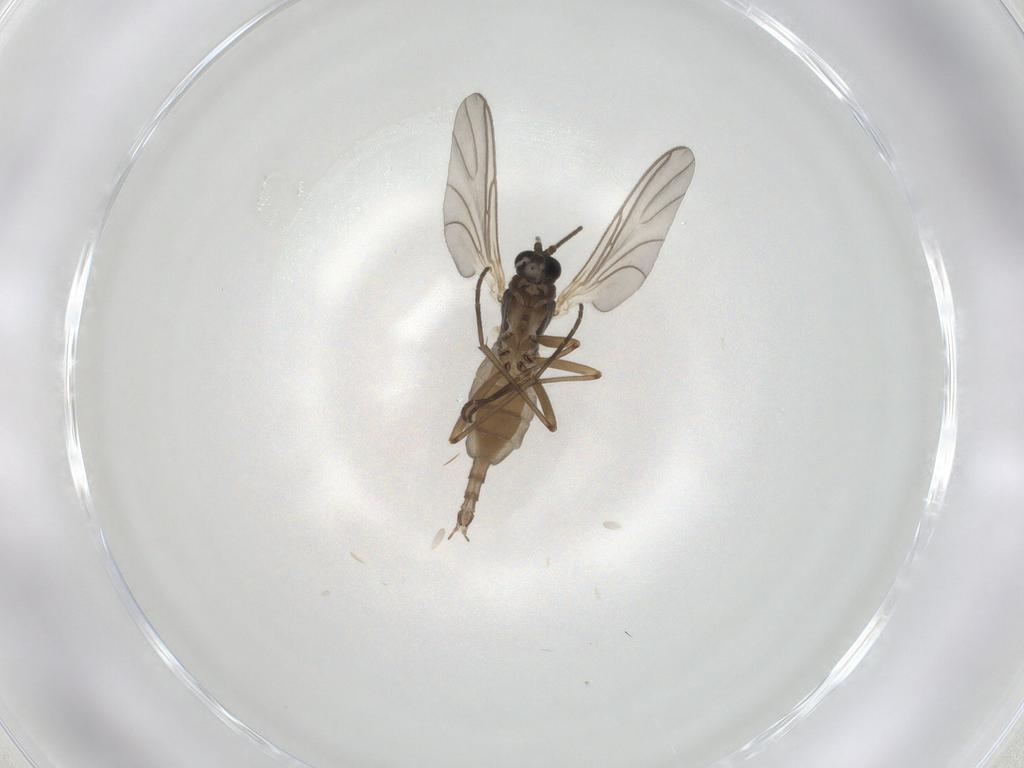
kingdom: Animalia
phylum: Arthropoda
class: Insecta
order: Diptera
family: Sciaridae
